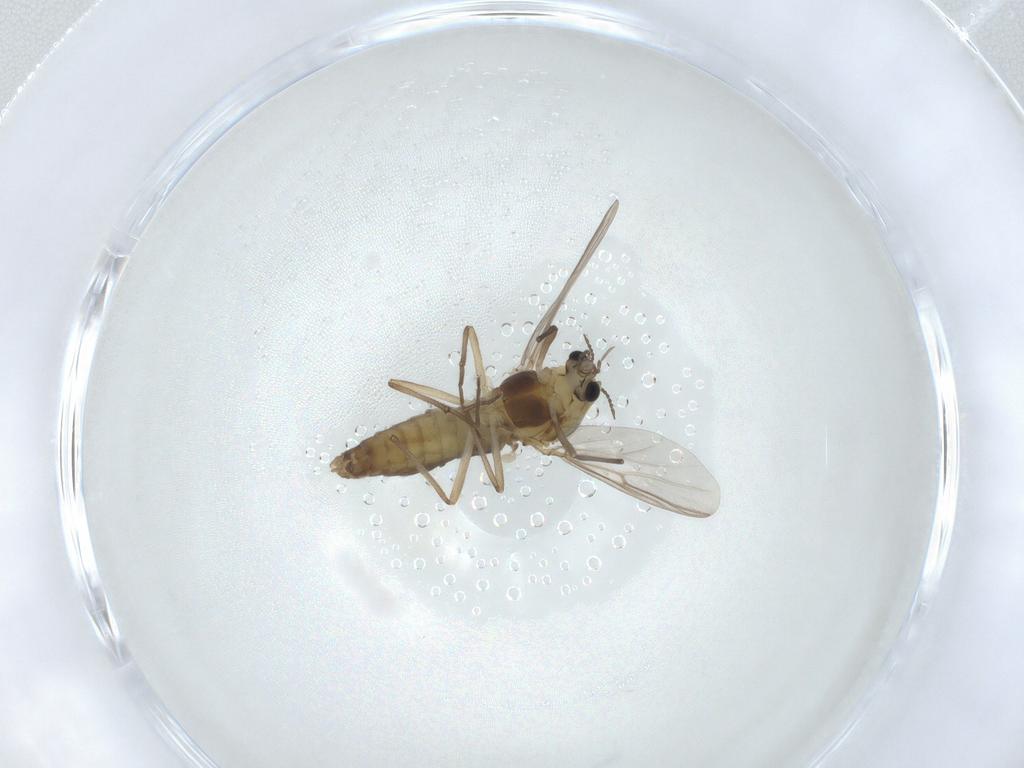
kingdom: Animalia
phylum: Arthropoda
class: Insecta
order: Diptera
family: Chironomidae
